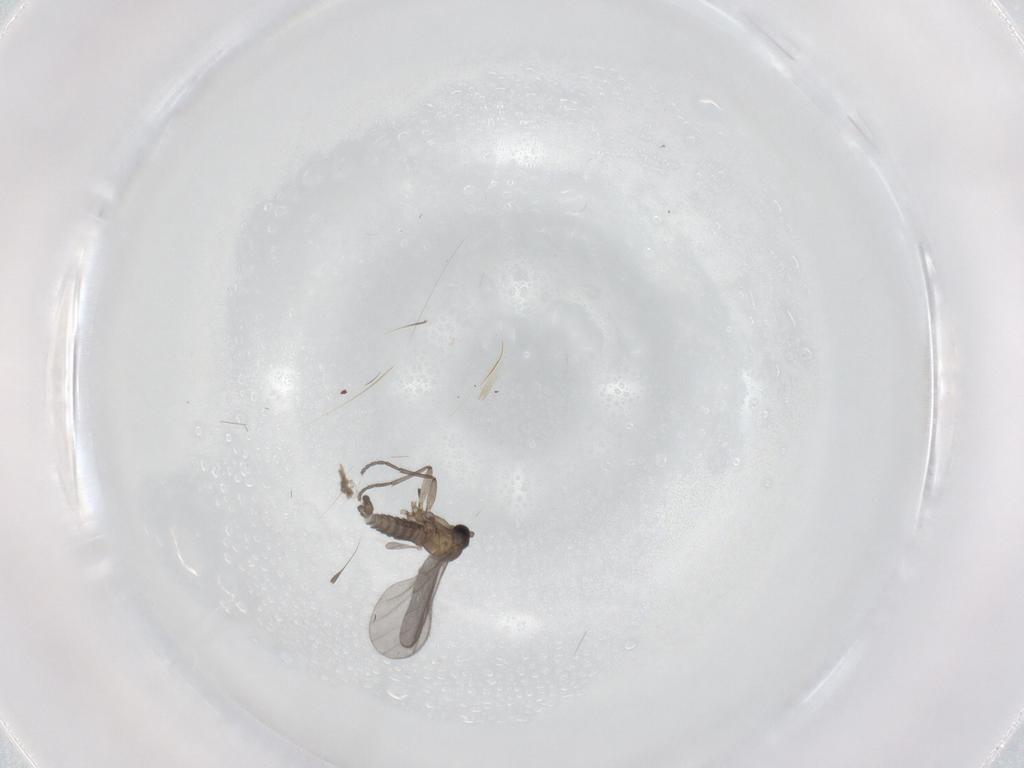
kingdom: Animalia
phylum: Arthropoda
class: Insecta
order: Diptera
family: Sciaridae
